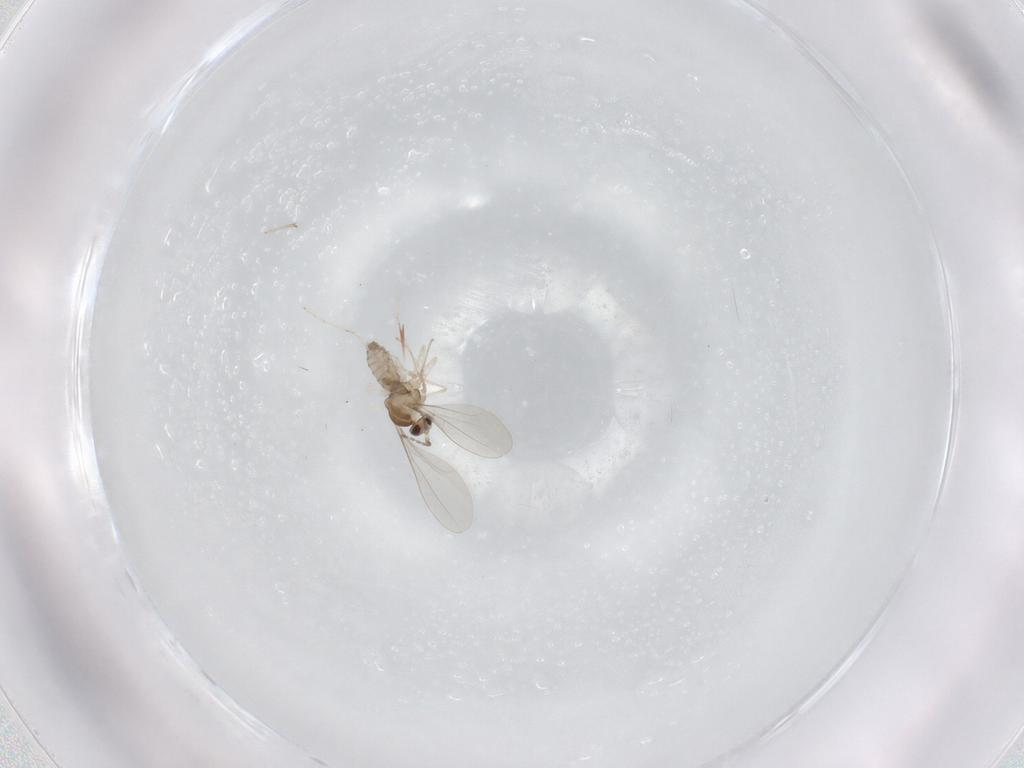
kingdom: Animalia
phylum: Arthropoda
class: Insecta
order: Diptera
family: Cecidomyiidae
